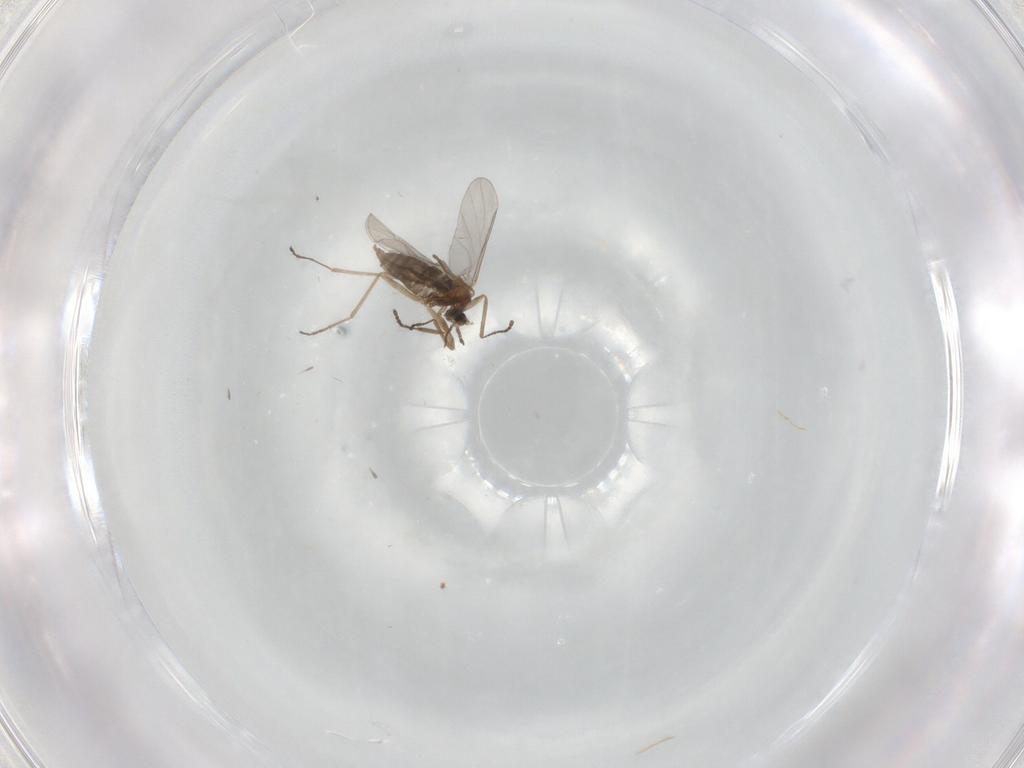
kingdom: Animalia
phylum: Arthropoda
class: Insecta
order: Diptera
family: Cecidomyiidae
